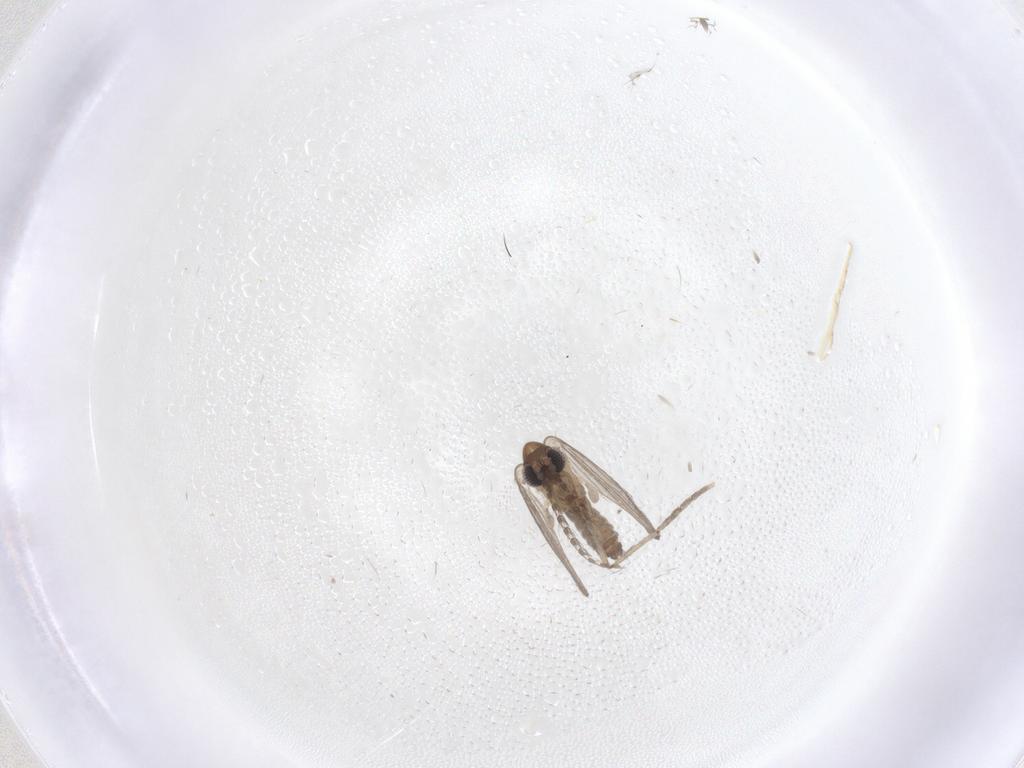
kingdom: Animalia
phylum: Arthropoda
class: Insecta
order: Diptera
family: Psychodidae
